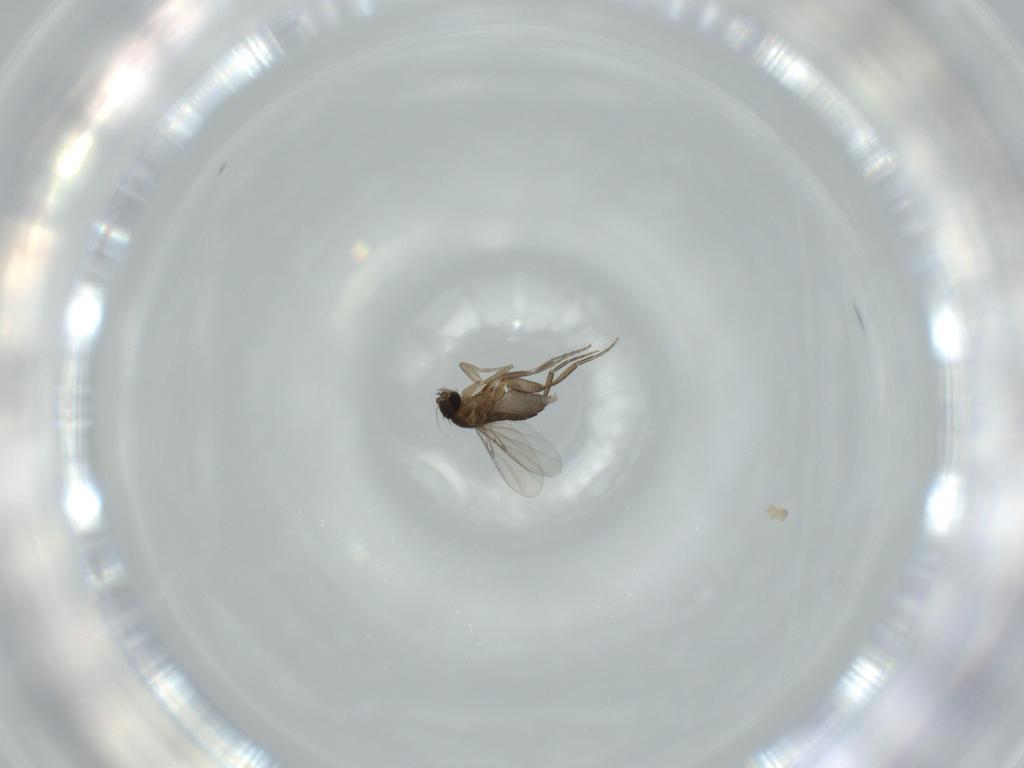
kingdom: Animalia
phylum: Arthropoda
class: Insecta
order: Diptera
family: Phoridae
